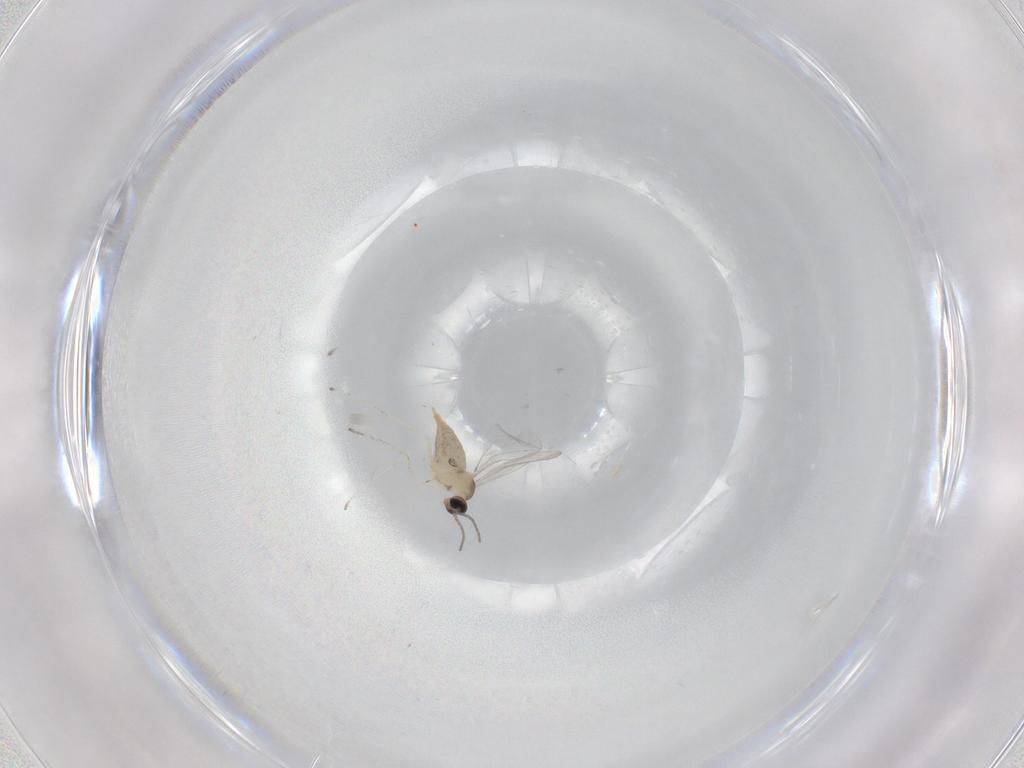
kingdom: Animalia
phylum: Arthropoda
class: Insecta
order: Diptera
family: Cecidomyiidae
